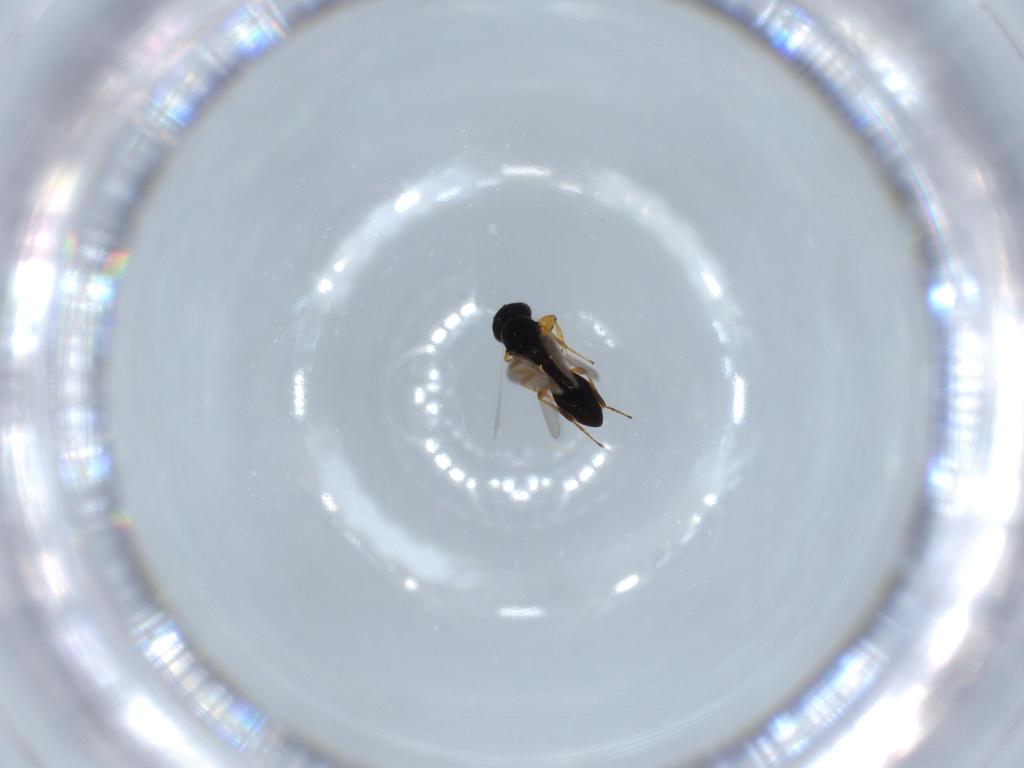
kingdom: Animalia
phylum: Arthropoda
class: Insecta
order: Hymenoptera
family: Platygastridae
